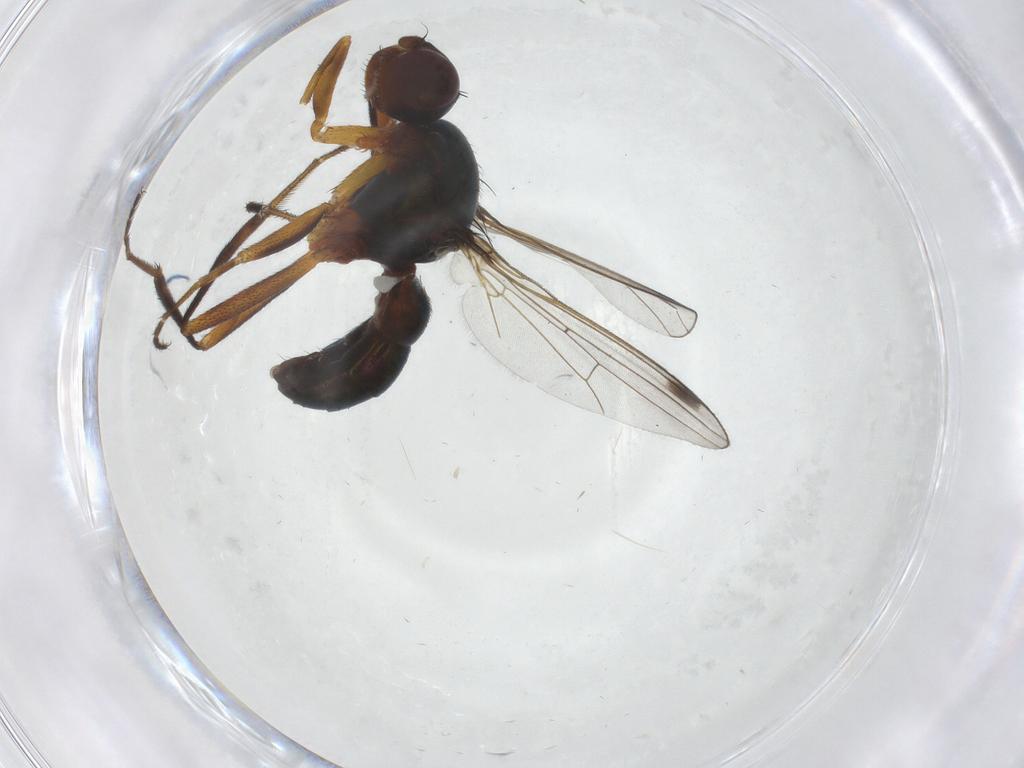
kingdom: Animalia
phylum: Arthropoda
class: Insecta
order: Diptera
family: Sepsidae
